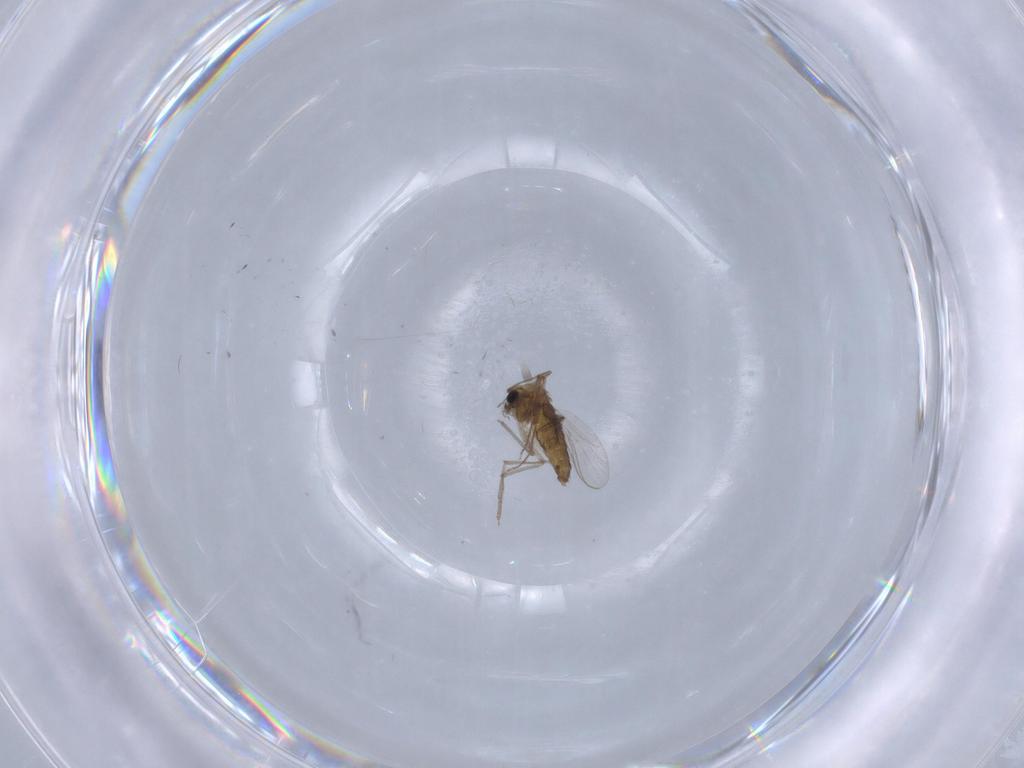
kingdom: Animalia
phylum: Arthropoda
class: Insecta
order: Diptera
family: Chironomidae
